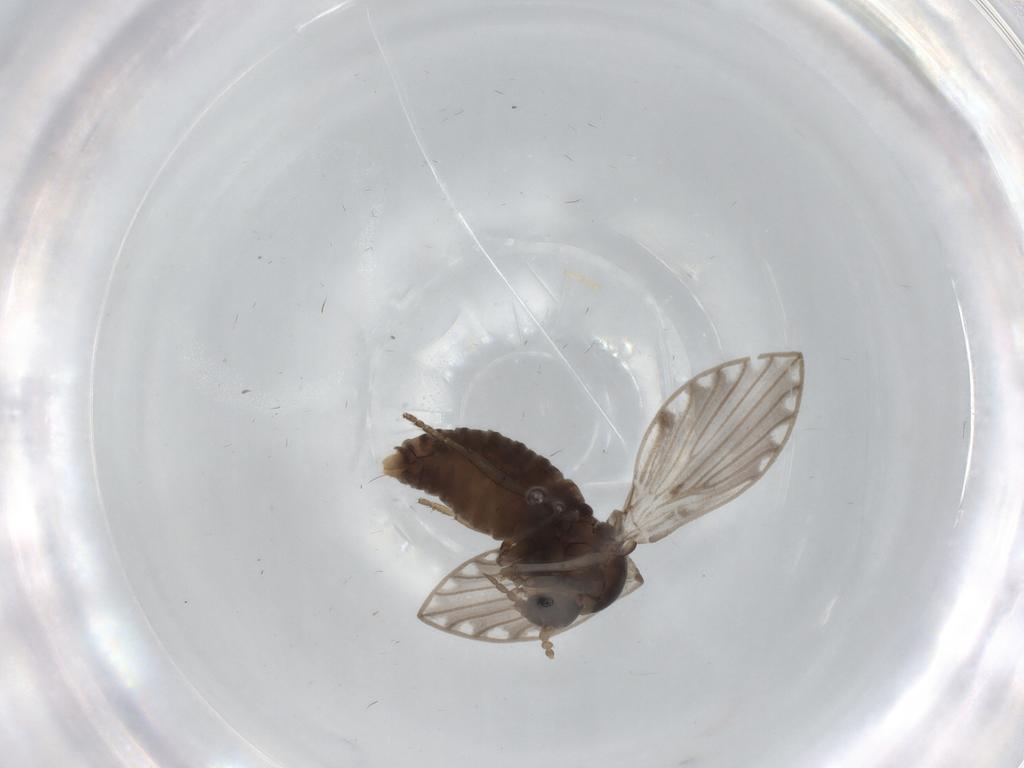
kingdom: Animalia
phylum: Arthropoda
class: Insecta
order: Diptera
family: Psychodidae
